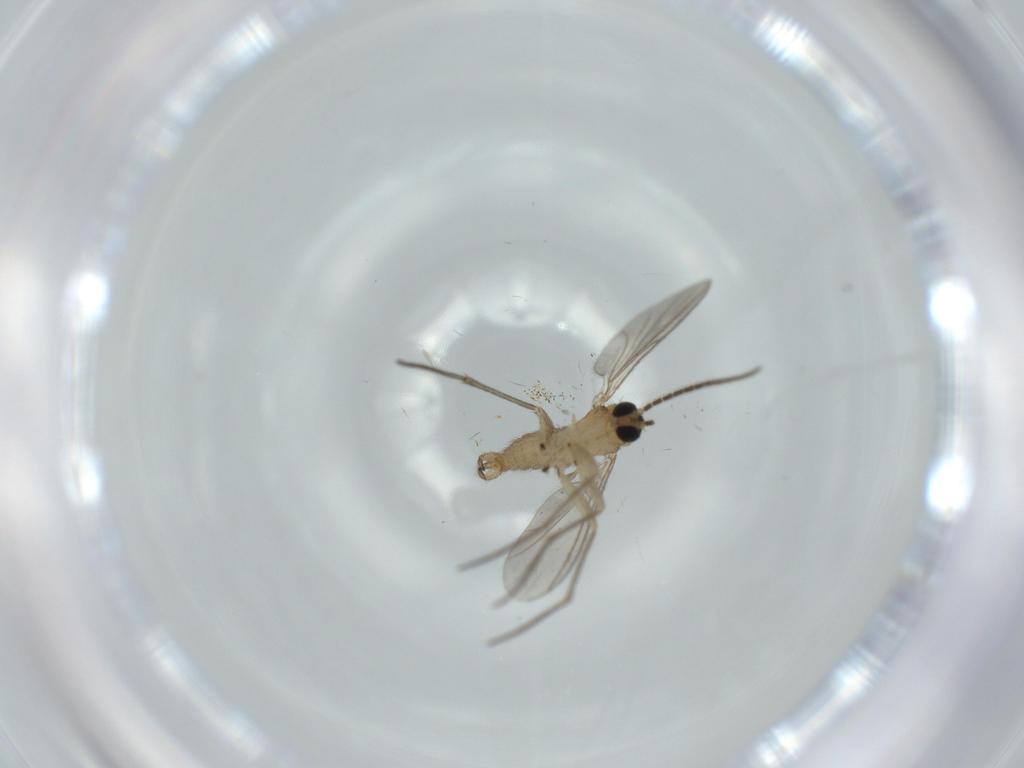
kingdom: Animalia
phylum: Arthropoda
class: Insecta
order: Diptera
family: Sciaridae
